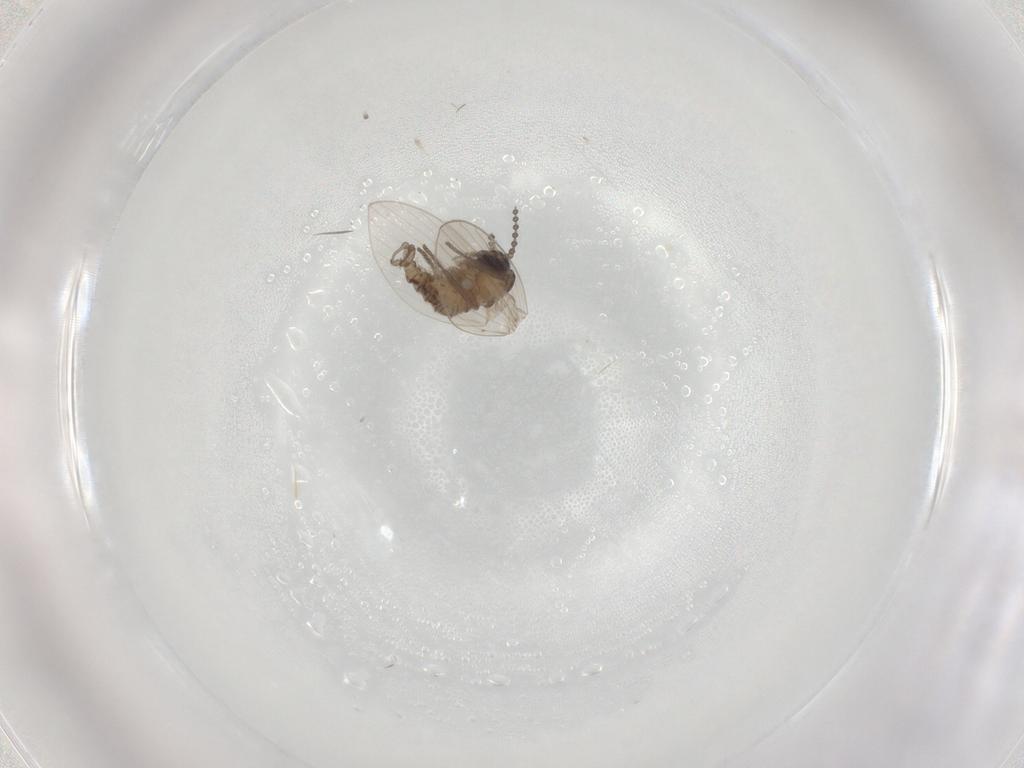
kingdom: Animalia
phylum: Arthropoda
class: Insecta
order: Diptera
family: Psychodidae
